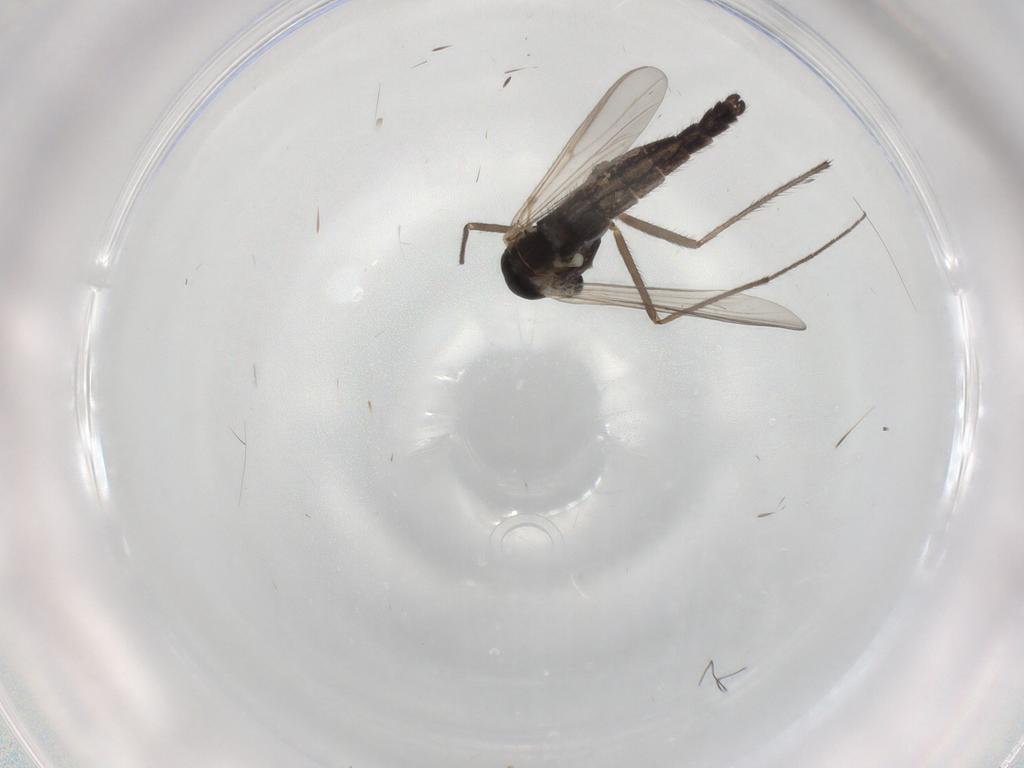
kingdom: Animalia
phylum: Arthropoda
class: Insecta
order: Diptera
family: Chironomidae
